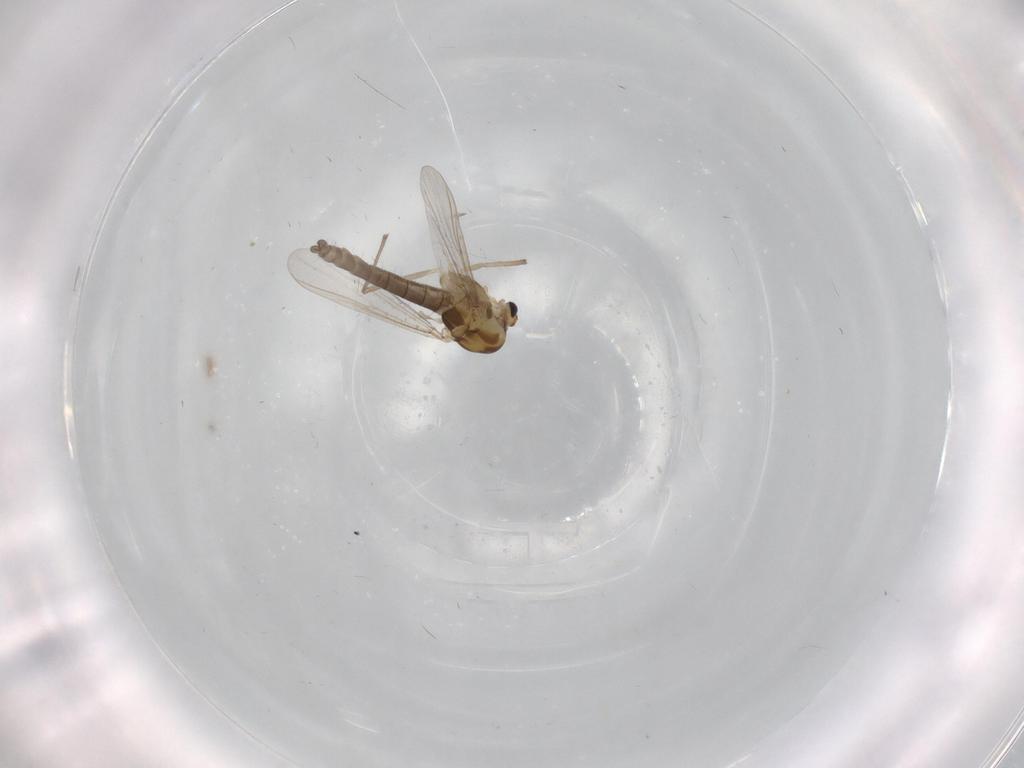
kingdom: Animalia
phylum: Arthropoda
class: Insecta
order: Diptera
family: Chironomidae
